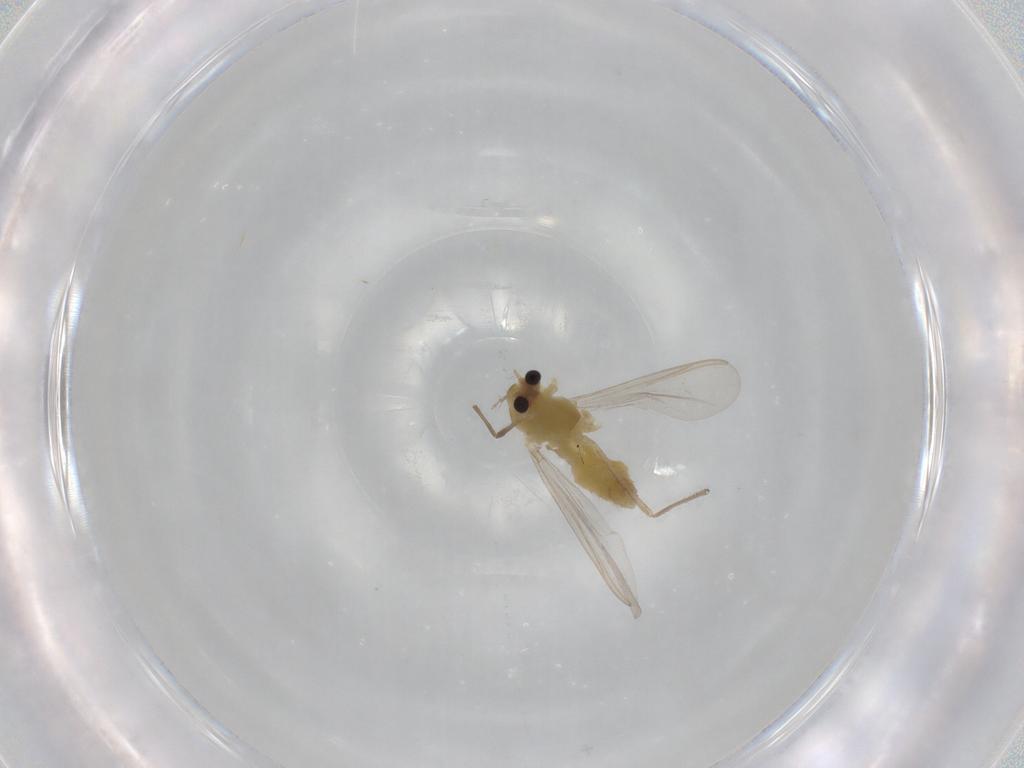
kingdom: Animalia
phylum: Arthropoda
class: Insecta
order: Diptera
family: Chironomidae
